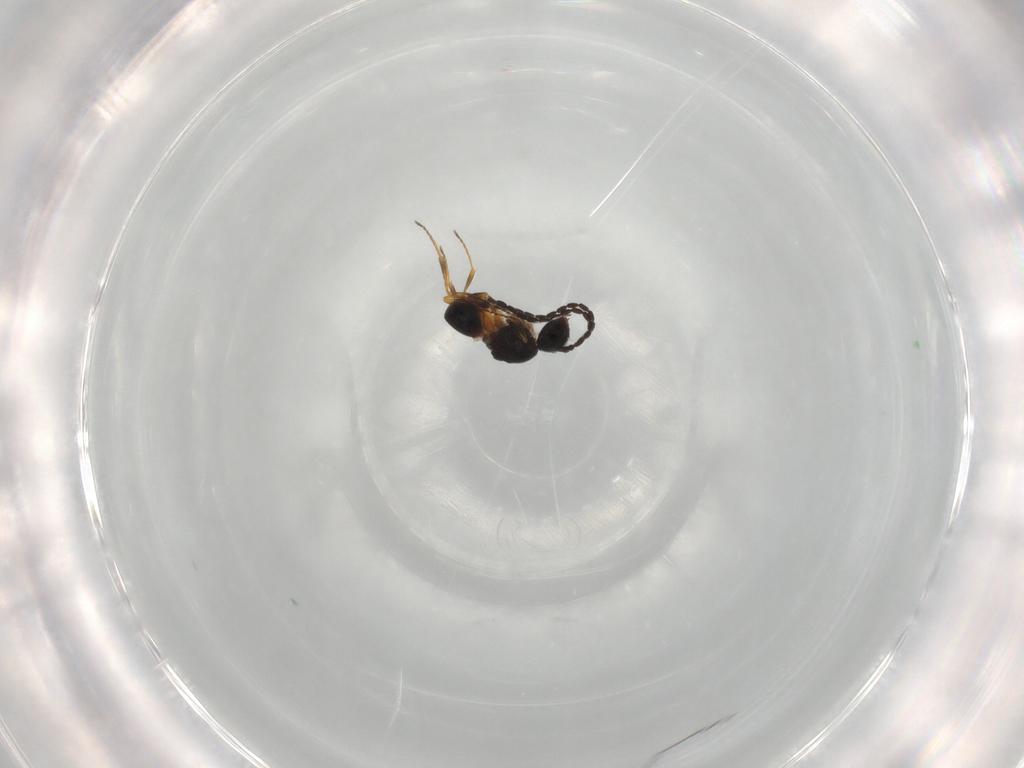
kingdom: Animalia
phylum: Arthropoda
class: Insecta
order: Hymenoptera
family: Figitidae
